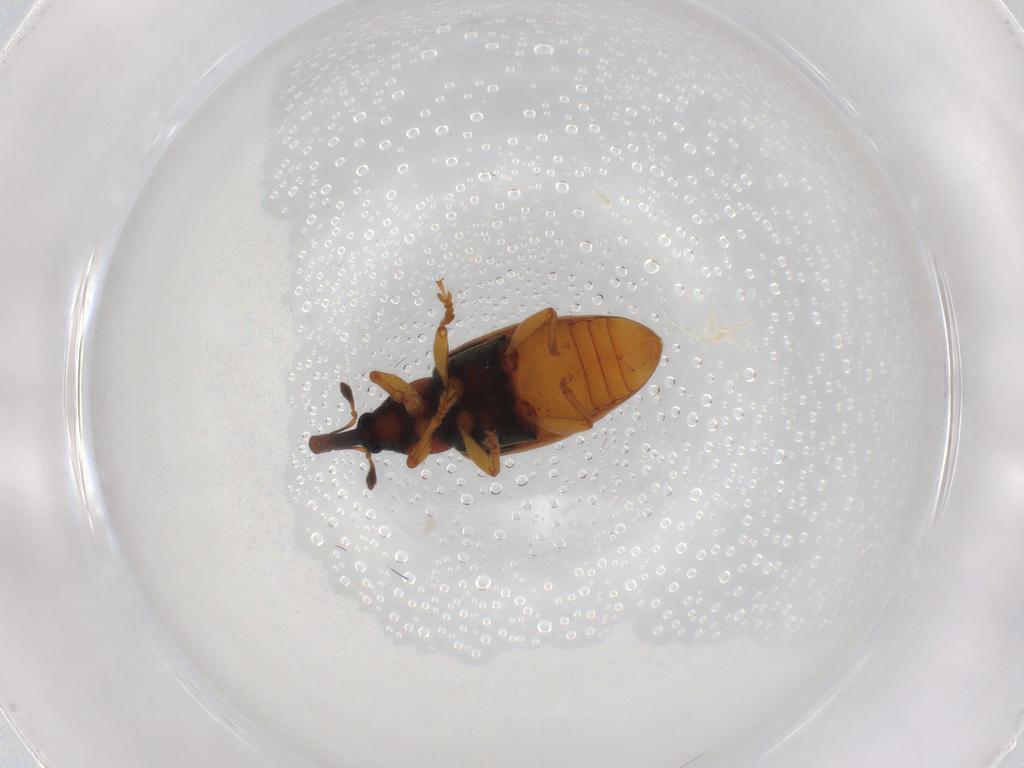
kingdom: Animalia
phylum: Arthropoda
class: Insecta
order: Coleoptera
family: Curculionidae
